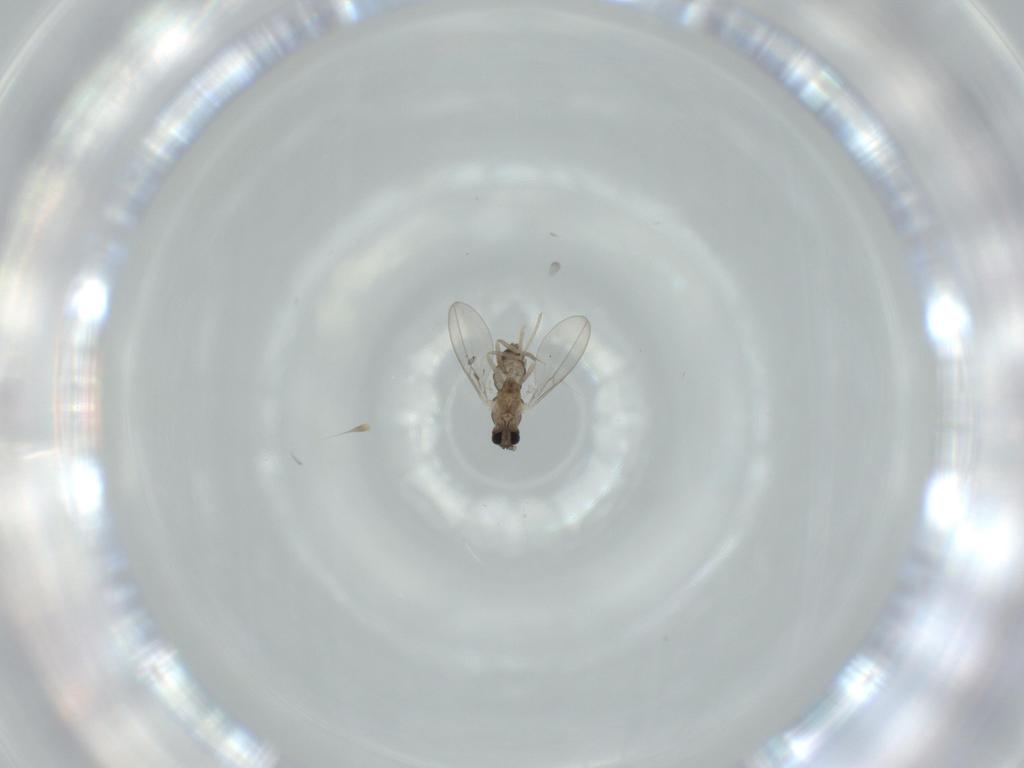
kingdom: Animalia
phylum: Arthropoda
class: Insecta
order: Diptera
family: Cecidomyiidae
